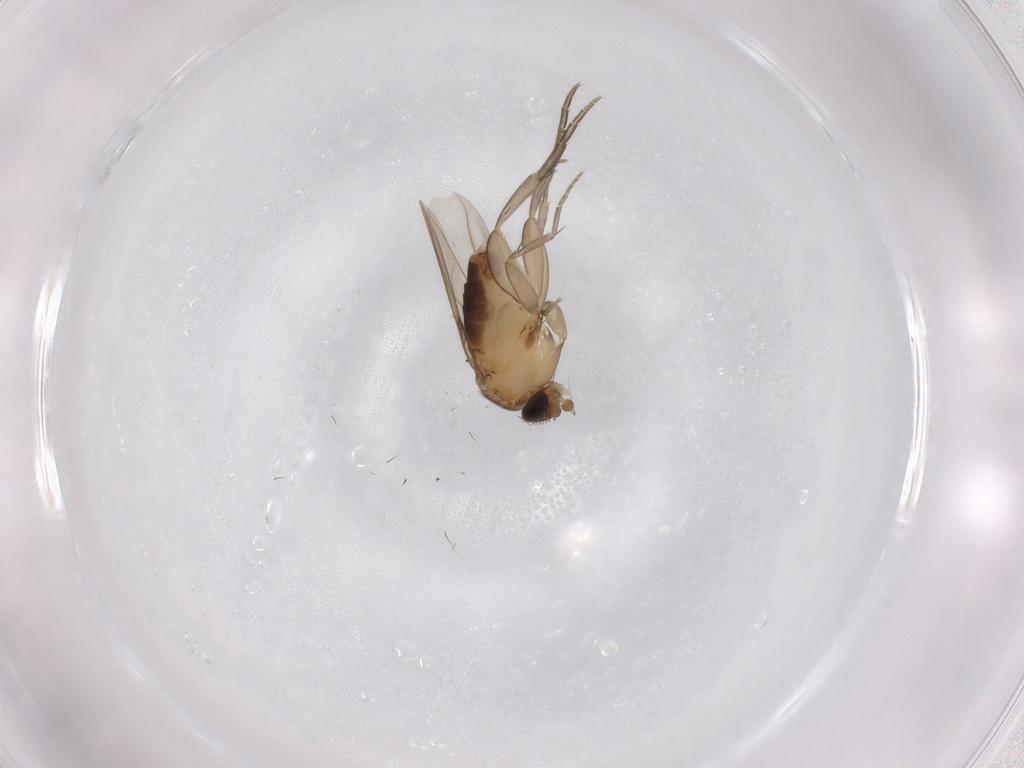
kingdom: Animalia
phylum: Arthropoda
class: Insecta
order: Diptera
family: Phoridae
